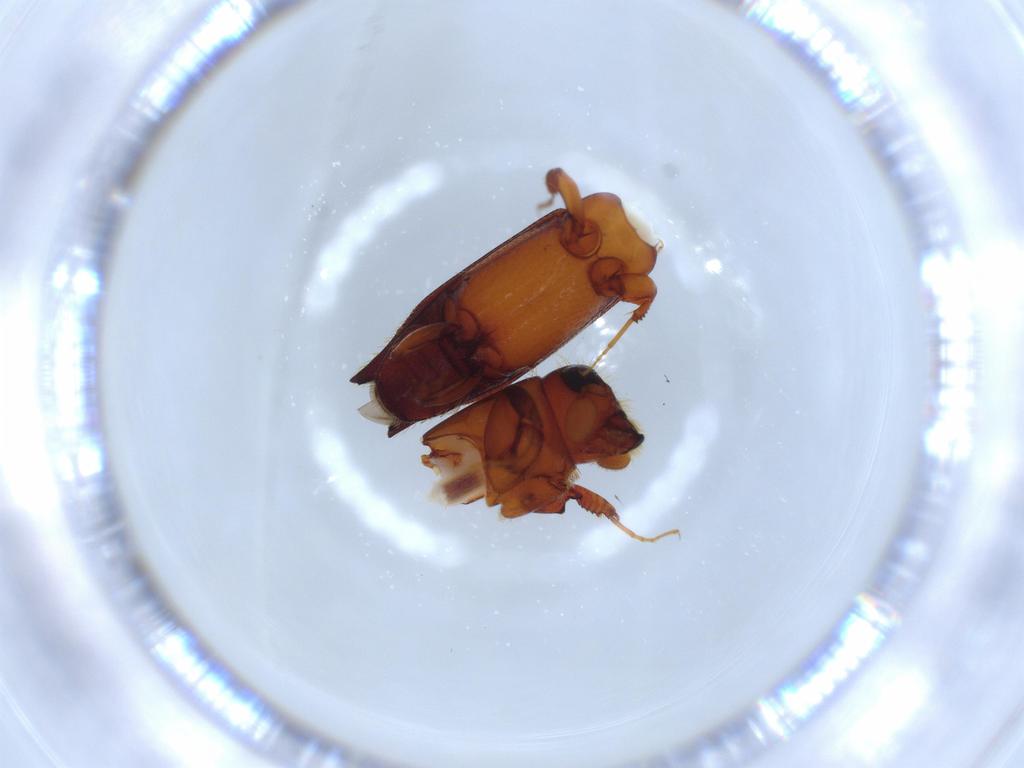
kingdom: Animalia
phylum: Arthropoda
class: Insecta
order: Coleoptera
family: Curculionidae
